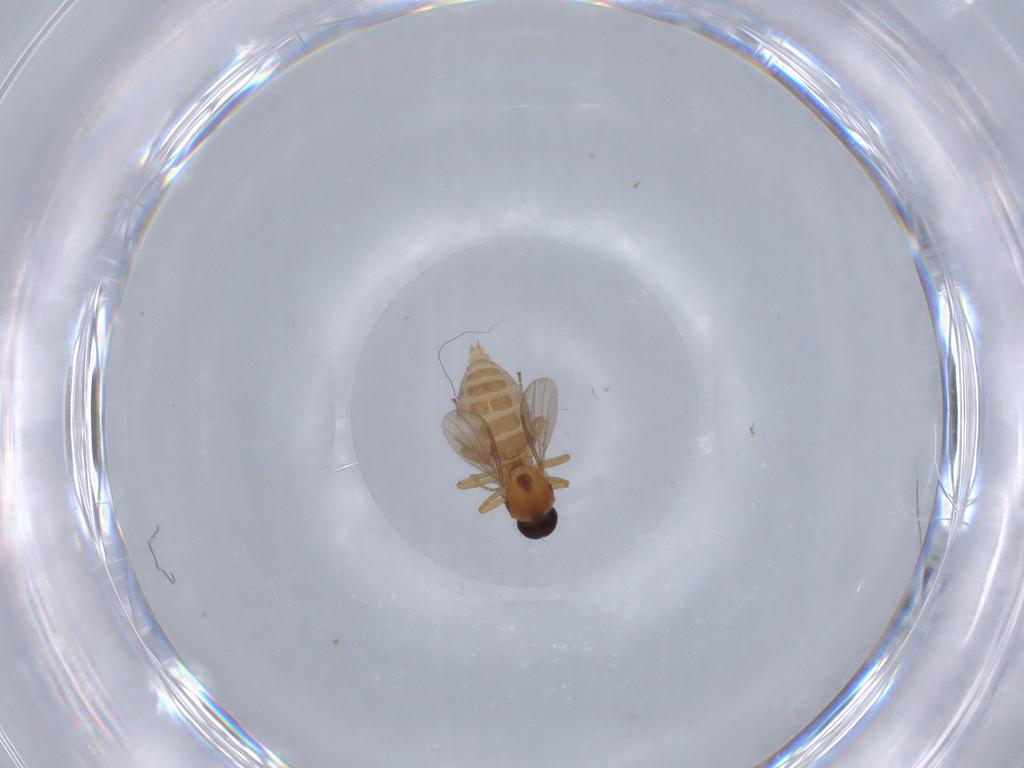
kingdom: Animalia
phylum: Arthropoda
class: Insecta
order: Diptera
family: Ceratopogonidae
